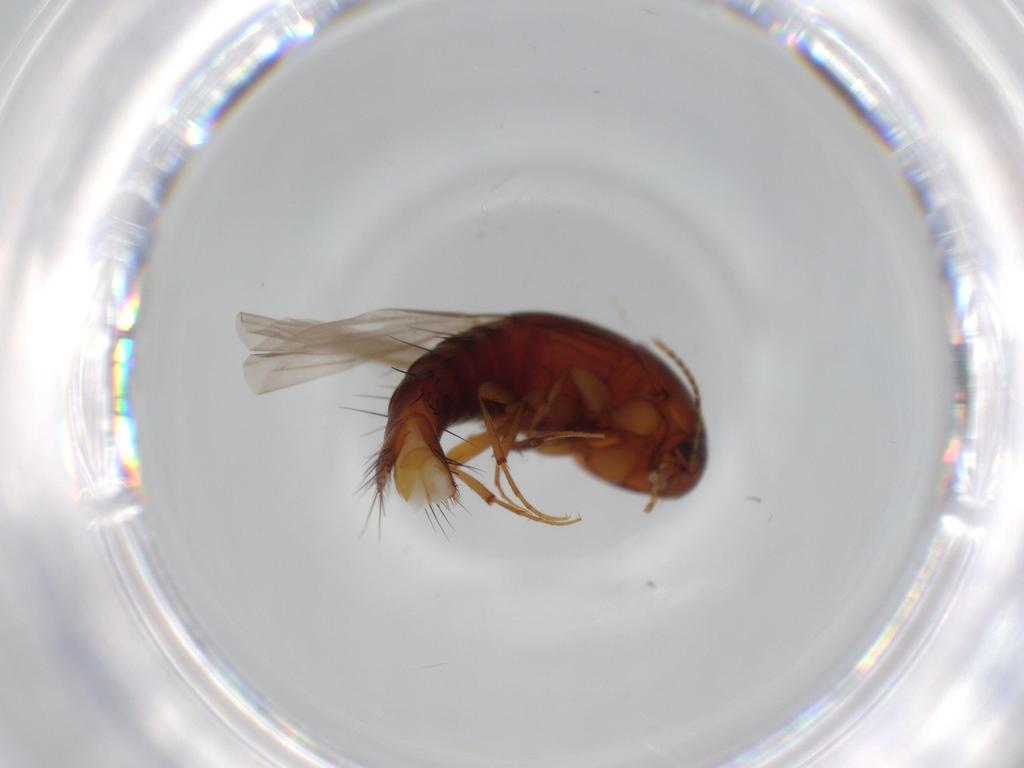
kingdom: Animalia
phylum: Arthropoda
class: Insecta
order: Coleoptera
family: Staphylinidae
